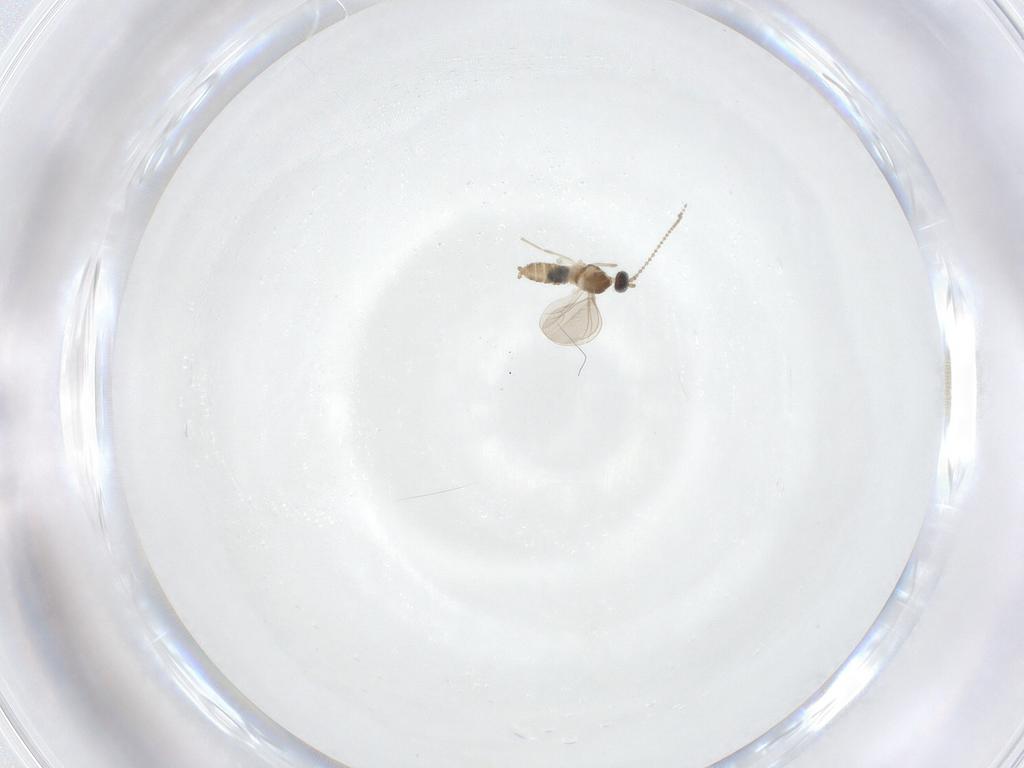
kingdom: Animalia
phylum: Arthropoda
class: Insecta
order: Diptera
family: Cecidomyiidae
